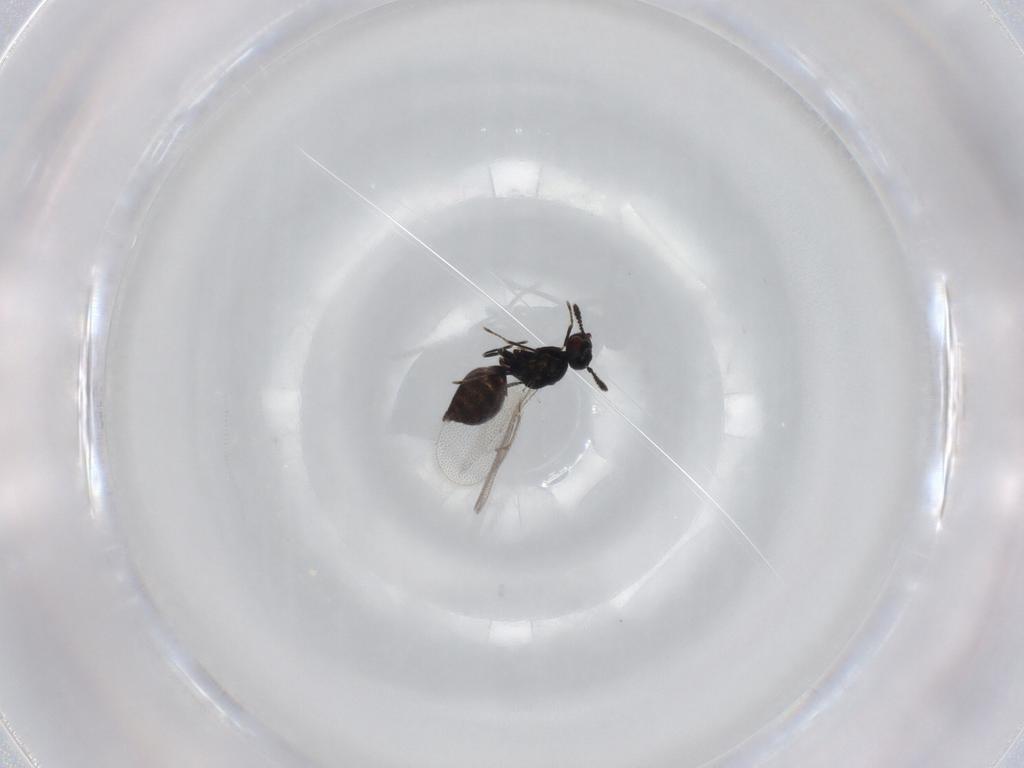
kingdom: Animalia
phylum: Arthropoda
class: Insecta
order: Hymenoptera
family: Pteromalidae
